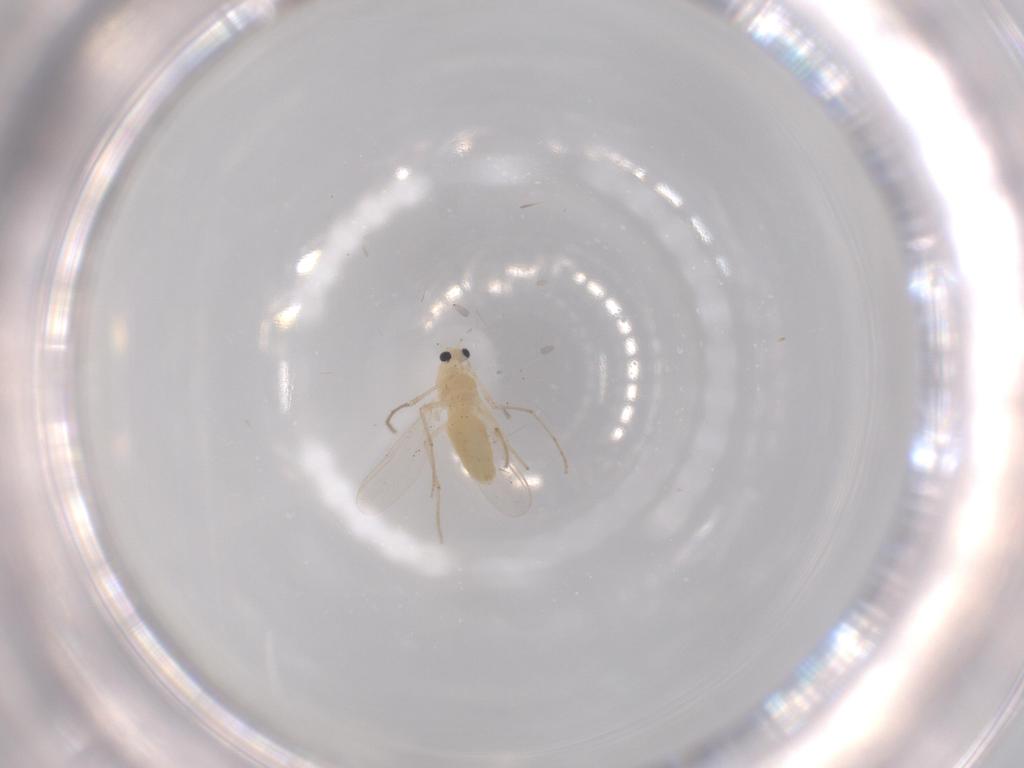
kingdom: Animalia
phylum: Arthropoda
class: Insecta
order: Diptera
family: Chironomidae
